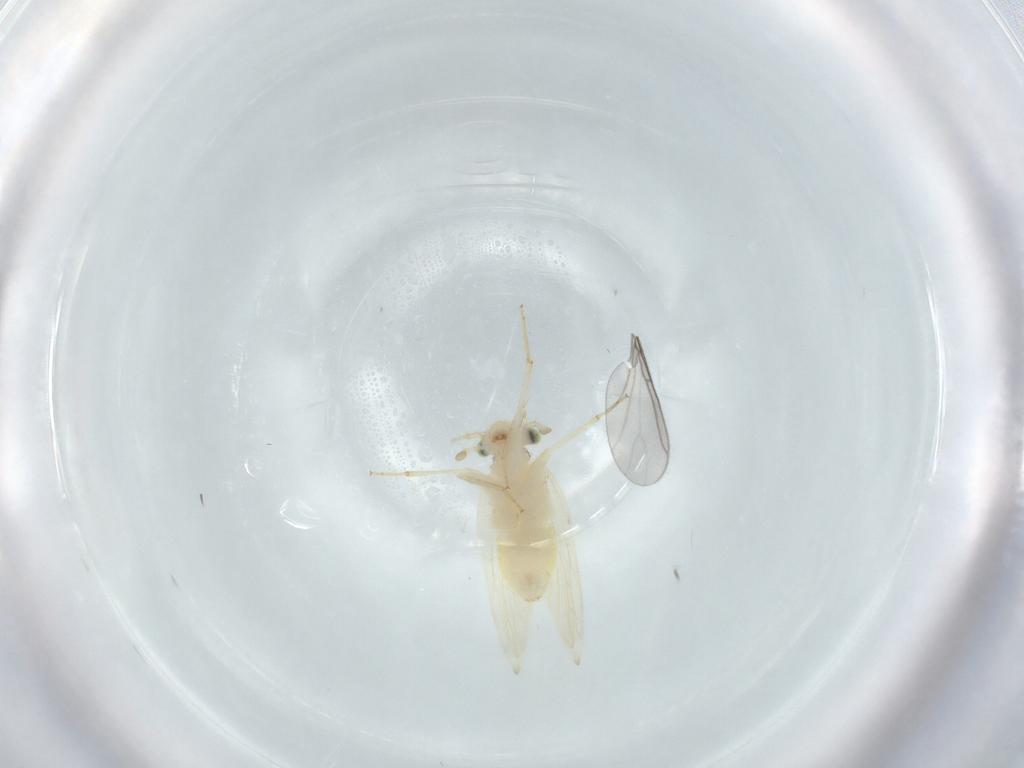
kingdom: Animalia
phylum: Arthropoda
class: Insecta
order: Psocodea
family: Lepidopsocidae
